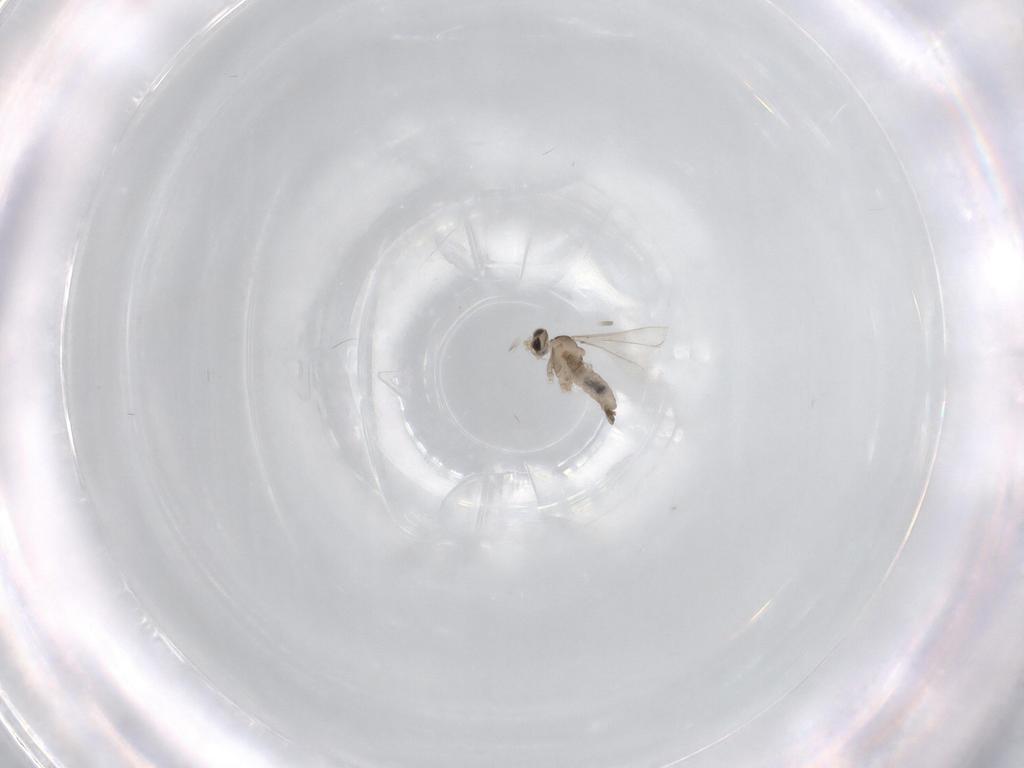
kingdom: Animalia
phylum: Arthropoda
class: Insecta
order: Diptera
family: Cecidomyiidae
